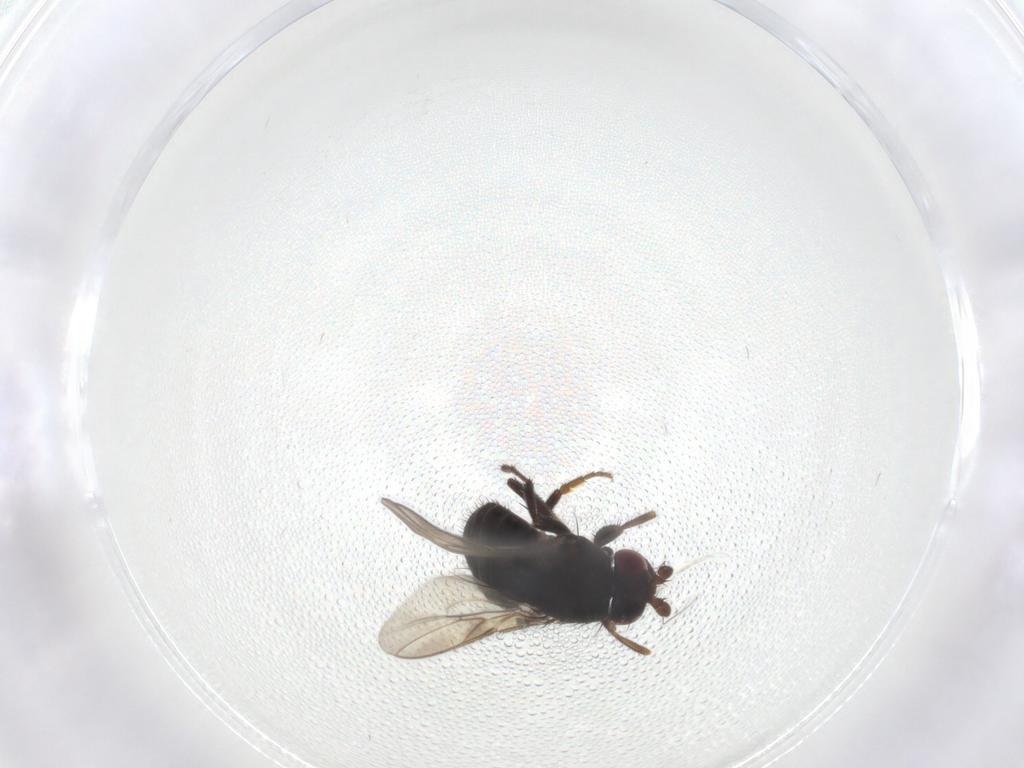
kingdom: Animalia
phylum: Arthropoda
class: Insecta
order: Diptera
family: Sphaeroceridae
